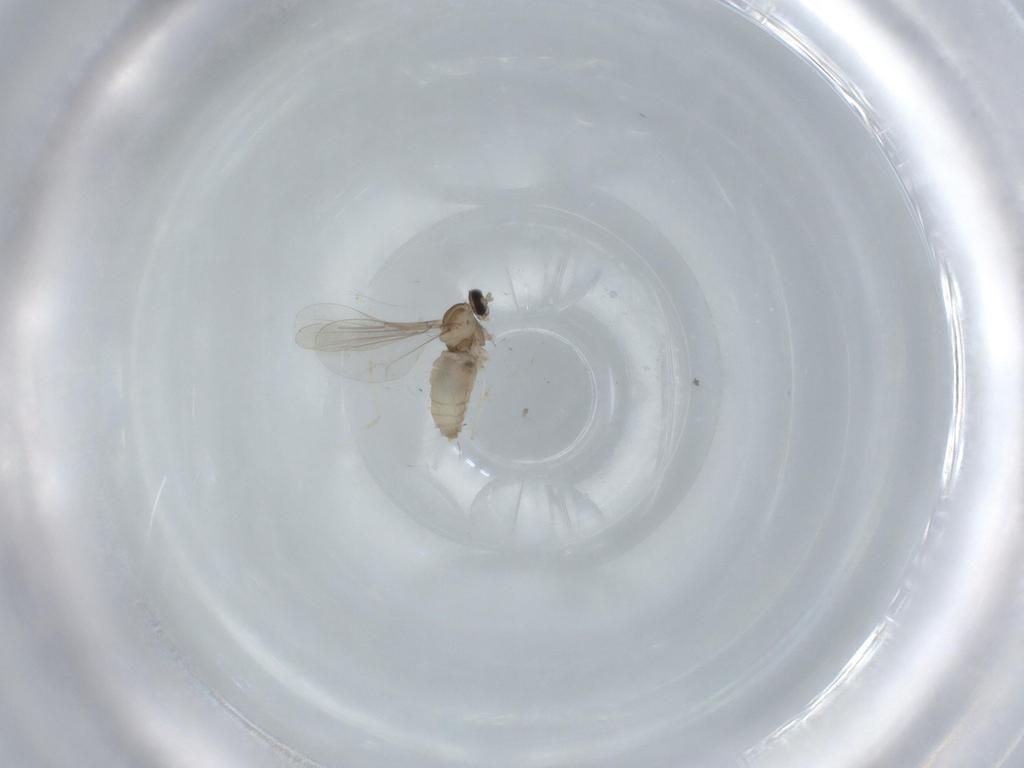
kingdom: Animalia
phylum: Arthropoda
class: Insecta
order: Diptera
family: Cecidomyiidae
